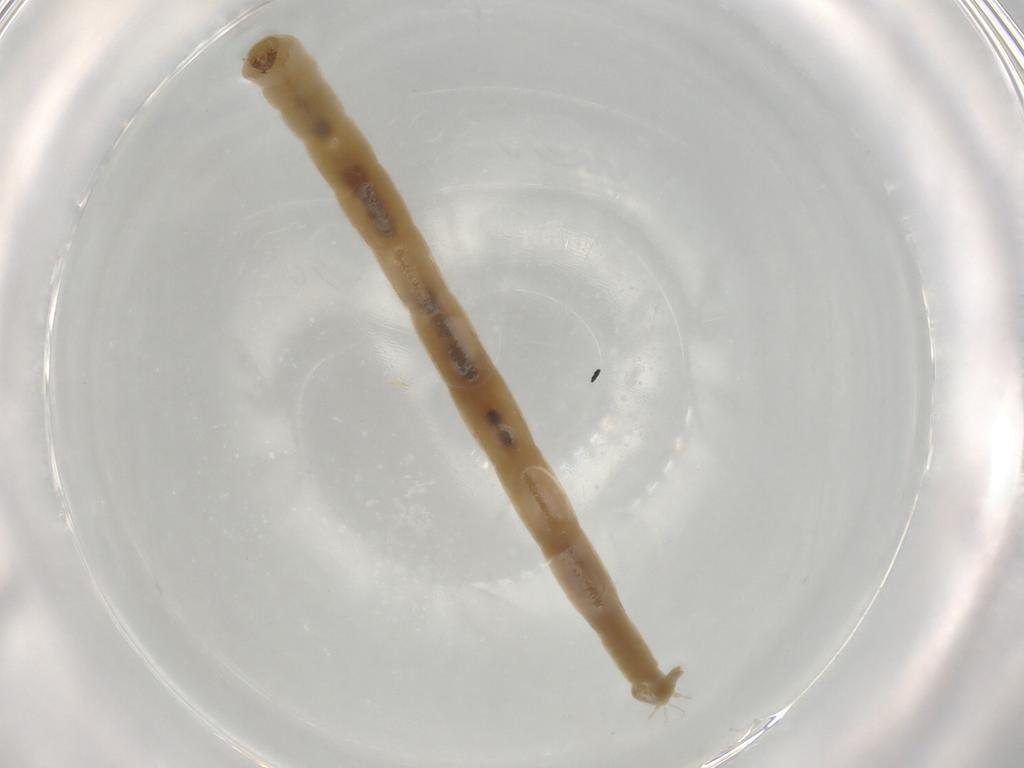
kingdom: Animalia
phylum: Arthropoda
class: Insecta
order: Diptera
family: Chironomidae
